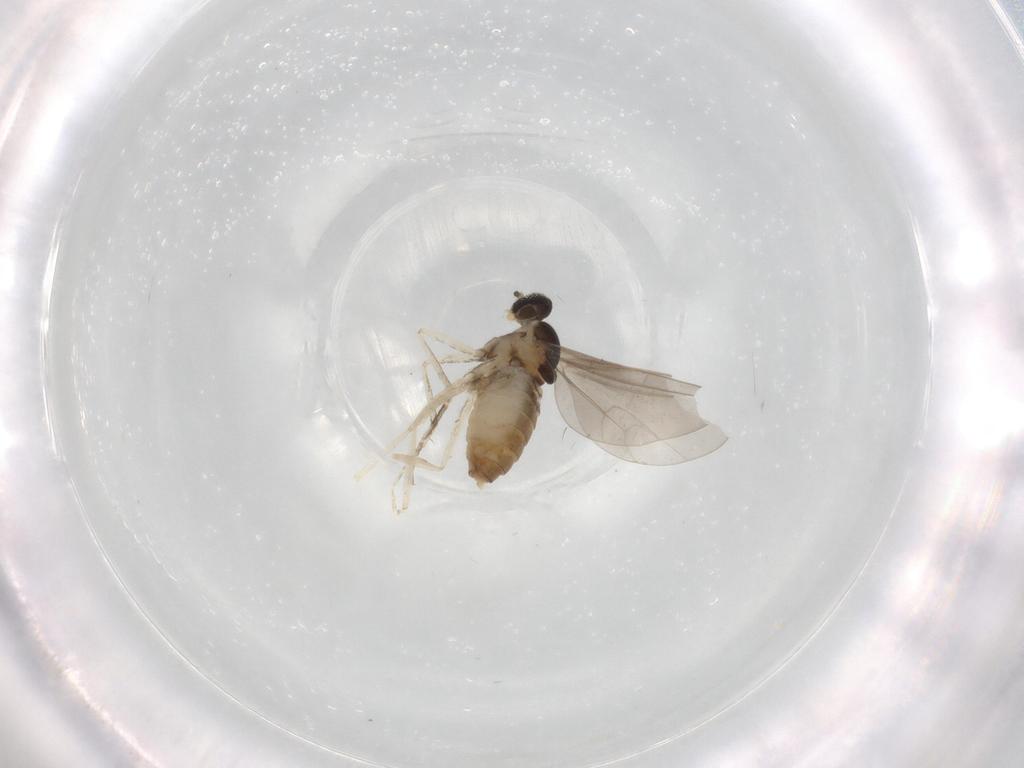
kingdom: Animalia
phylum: Arthropoda
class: Insecta
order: Diptera
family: Cecidomyiidae
